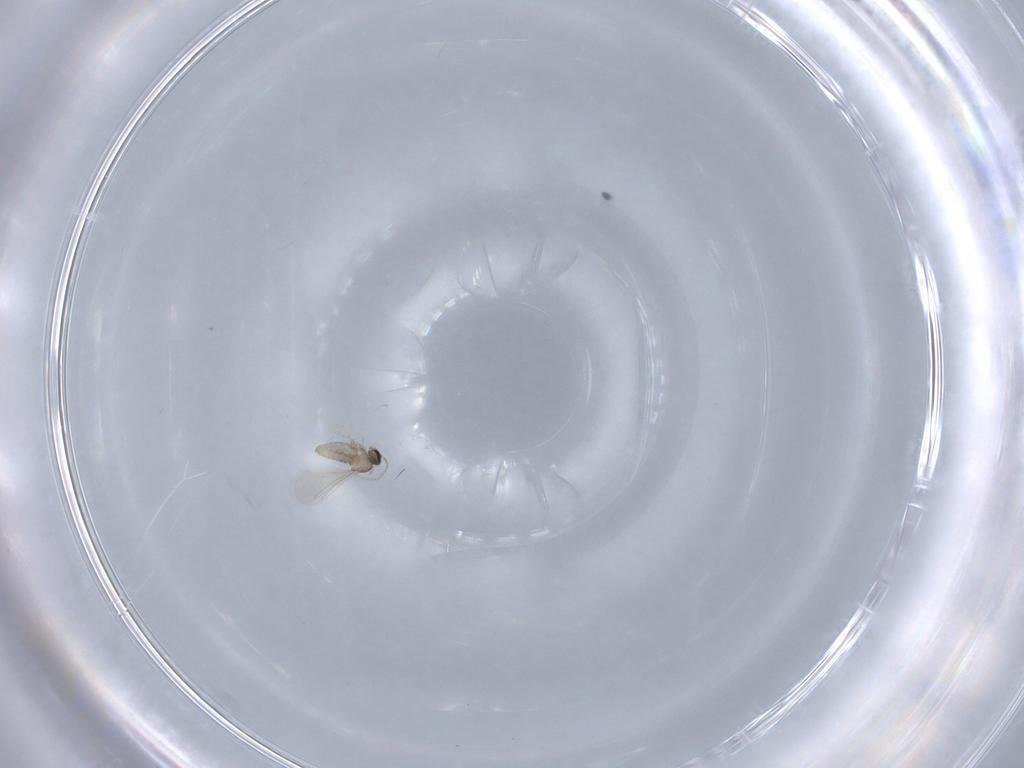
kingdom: Animalia
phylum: Arthropoda
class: Insecta
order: Diptera
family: Cecidomyiidae
